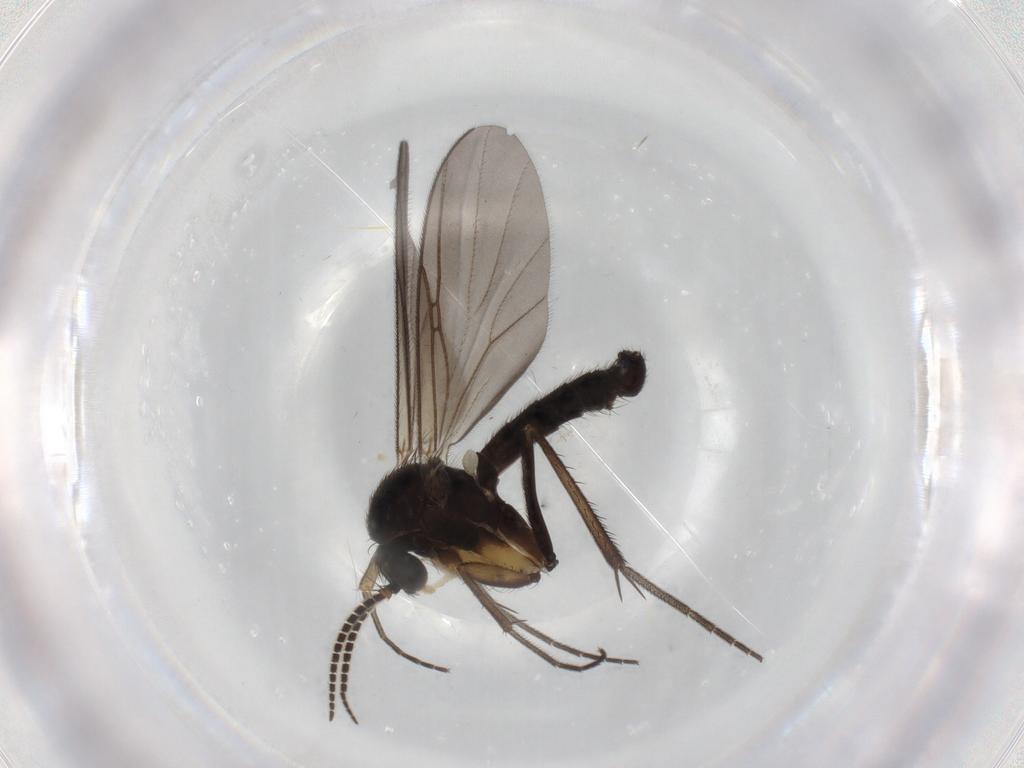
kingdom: Animalia
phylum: Arthropoda
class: Insecta
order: Diptera
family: Mycetophilidae
